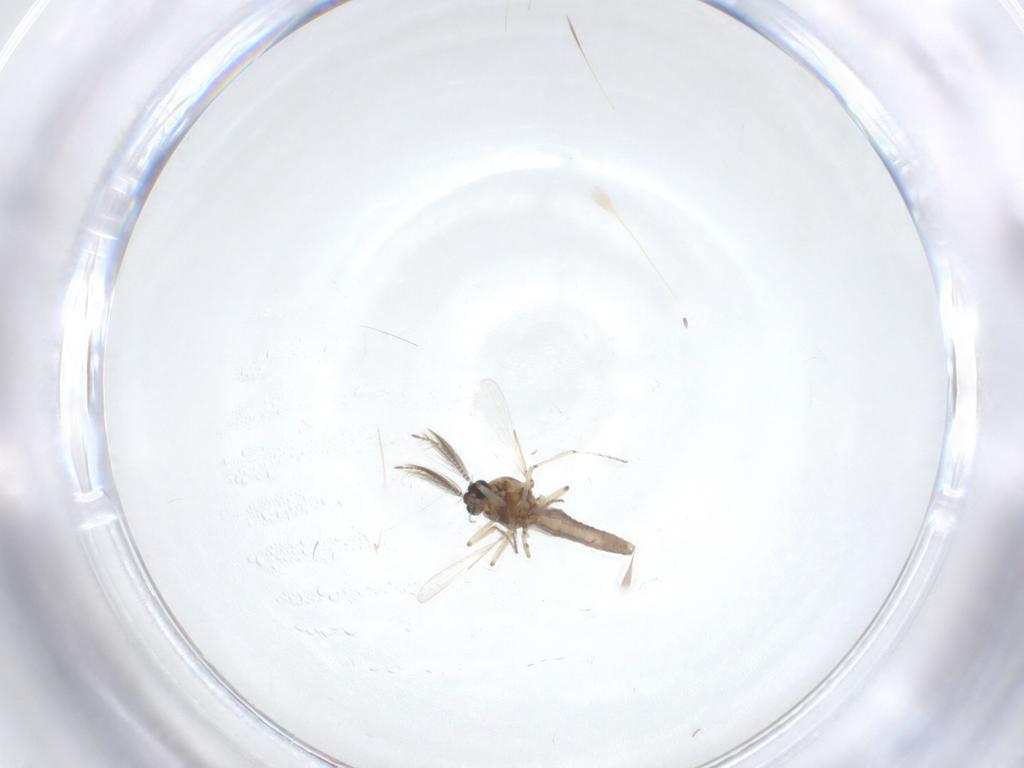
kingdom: Animalia
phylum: Arthropoda
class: Insecta
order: Diptera
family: Ceratopogonidae
